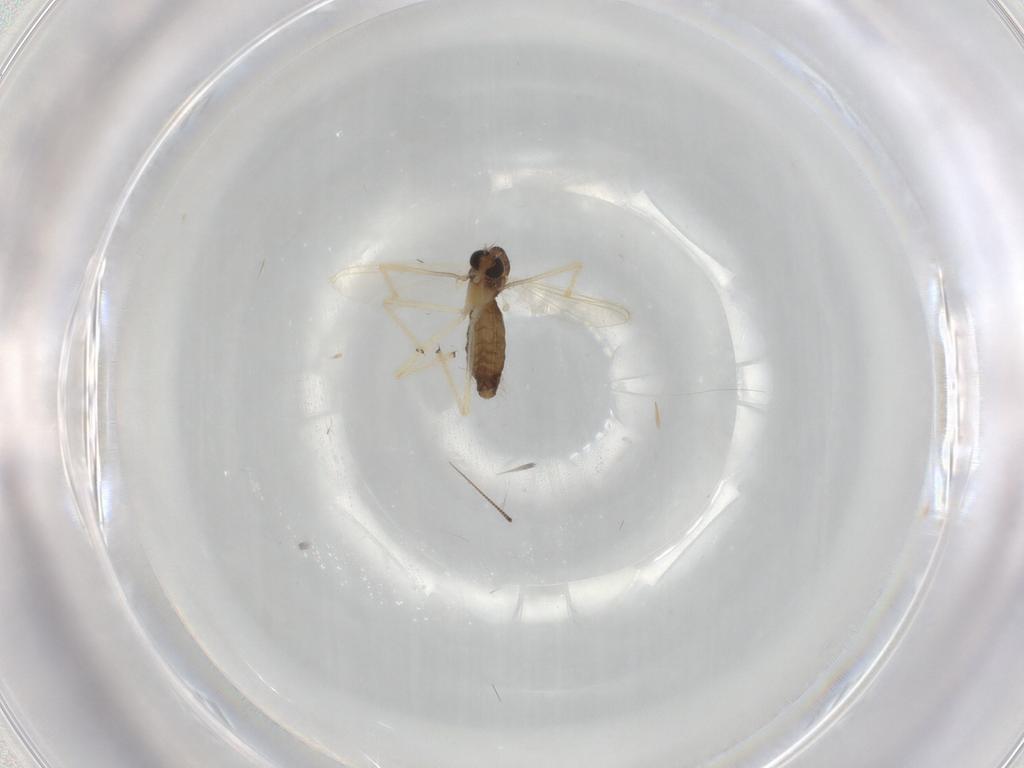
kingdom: Animalia
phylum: Arthropoda
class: Insecta
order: Diptera
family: Chironomidae
